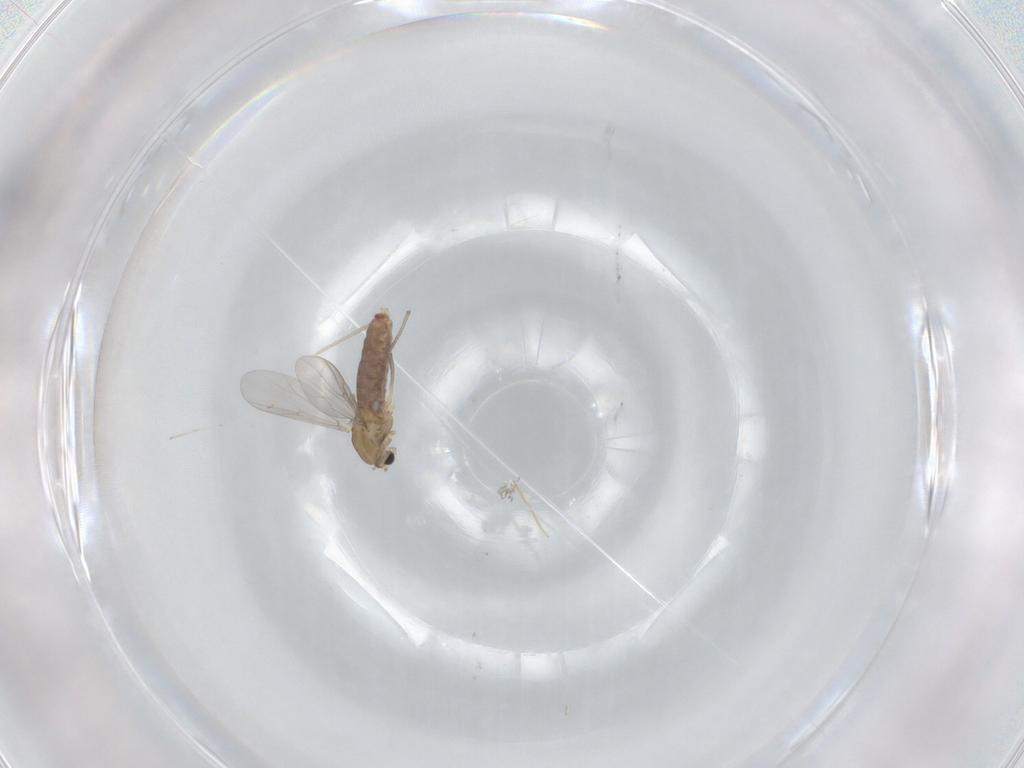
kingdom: Animalia
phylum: Arthropoda
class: Insecta
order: Diptera
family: Chironomidae
